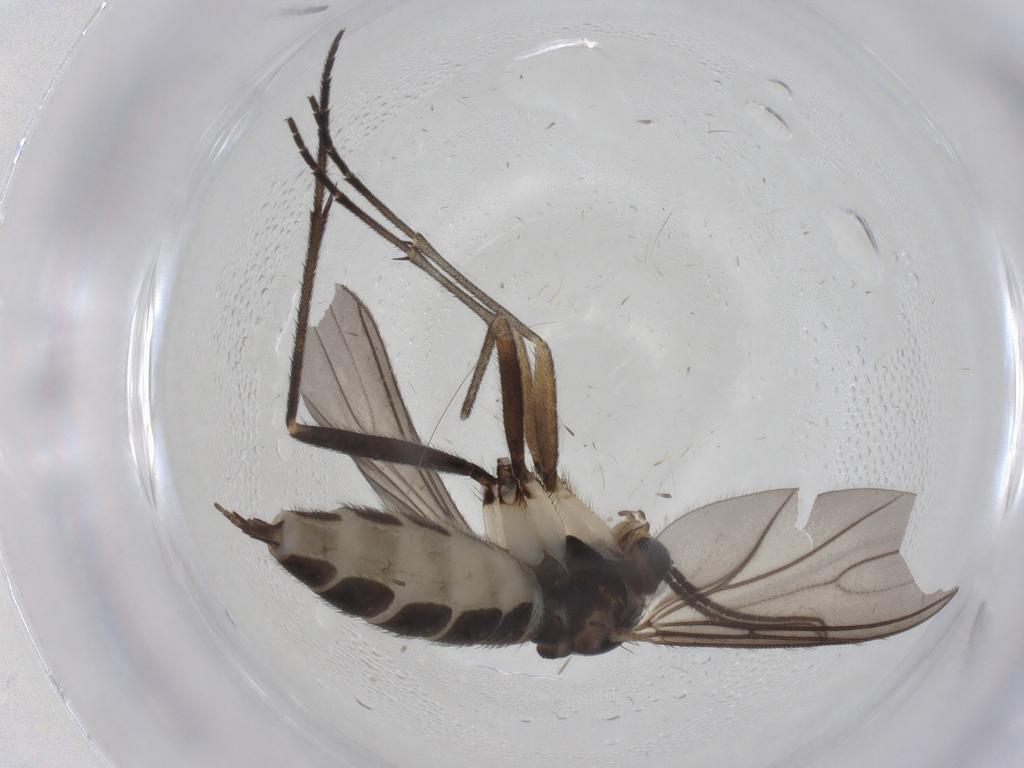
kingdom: Animalia
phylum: Arthropoda
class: Insecta
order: Diptera
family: Sciaridae
